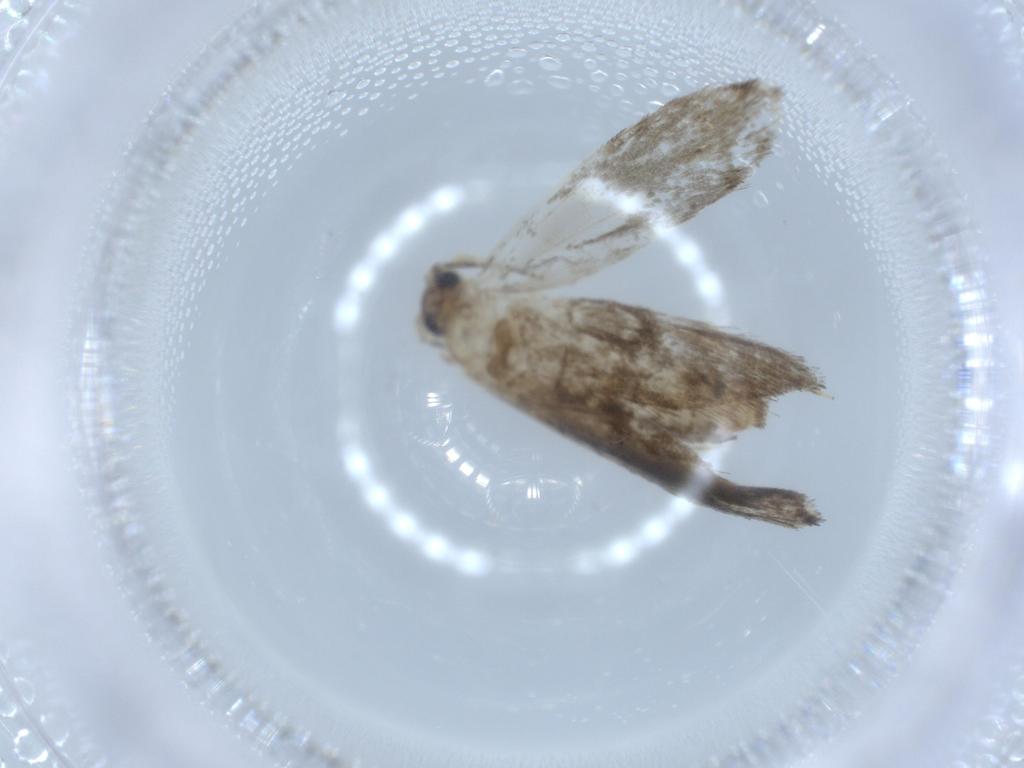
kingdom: Animalia
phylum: Arthropoda
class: Insecta
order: Lepidoptera
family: Tineidae
